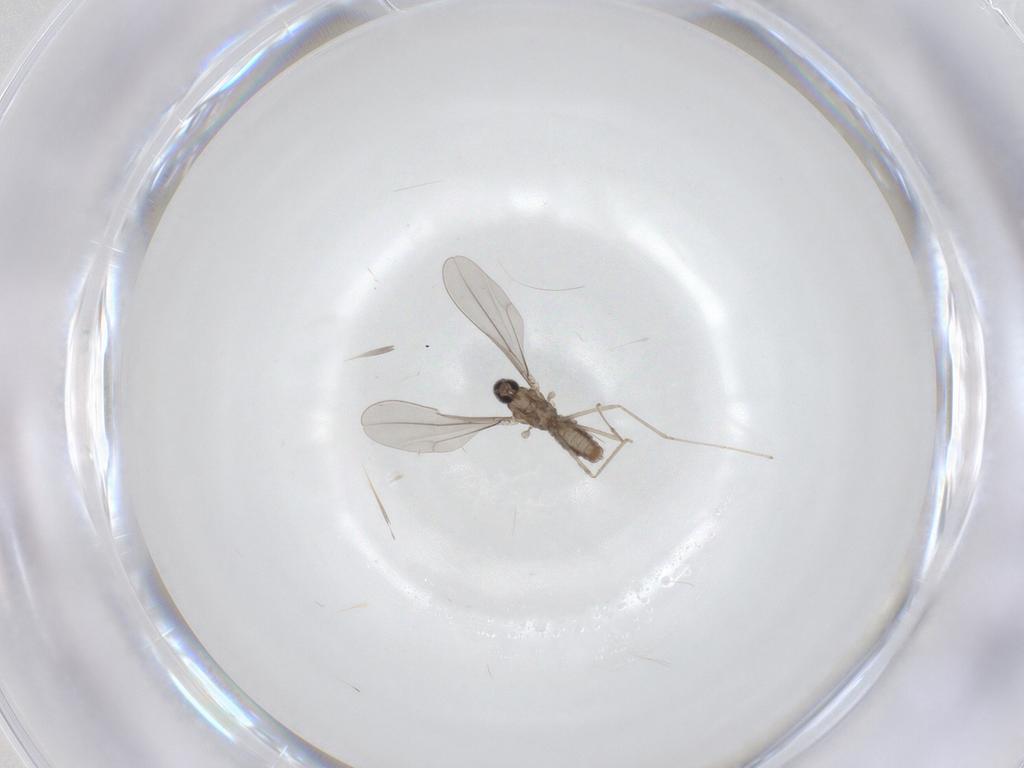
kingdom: Animalia
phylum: Arthropoda
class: Insecta
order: Diptera
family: Cecidomyiidae
